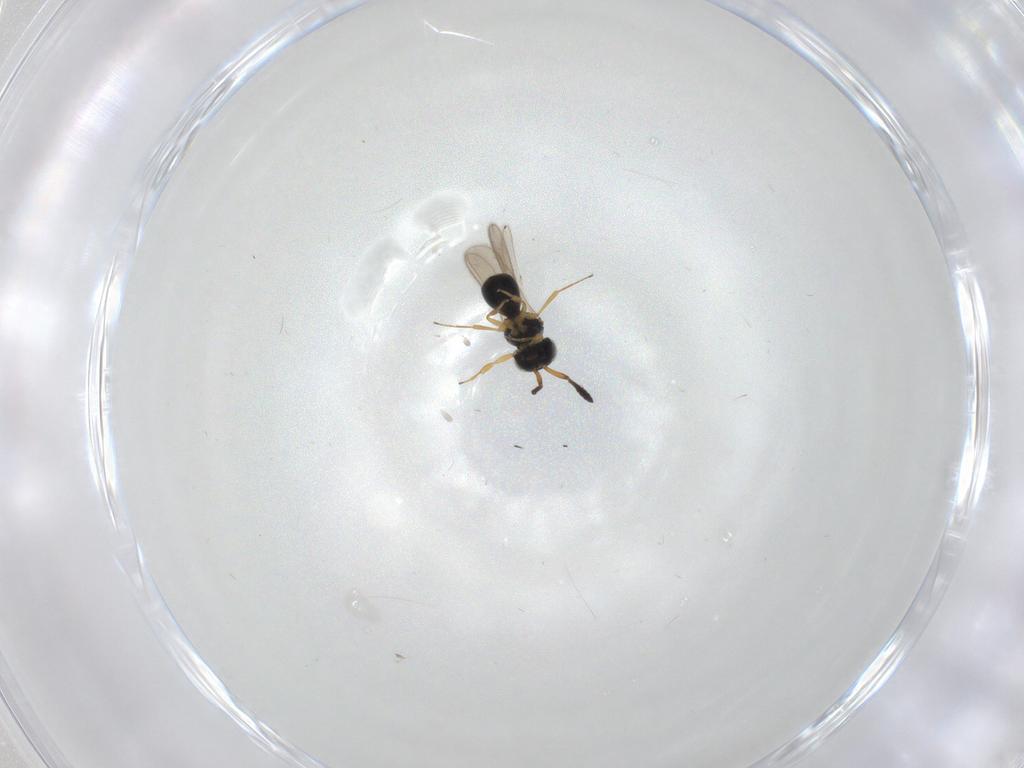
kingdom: Animalia
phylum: Arthropoda
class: Insecta
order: Hymenoptera
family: Scelionidae
